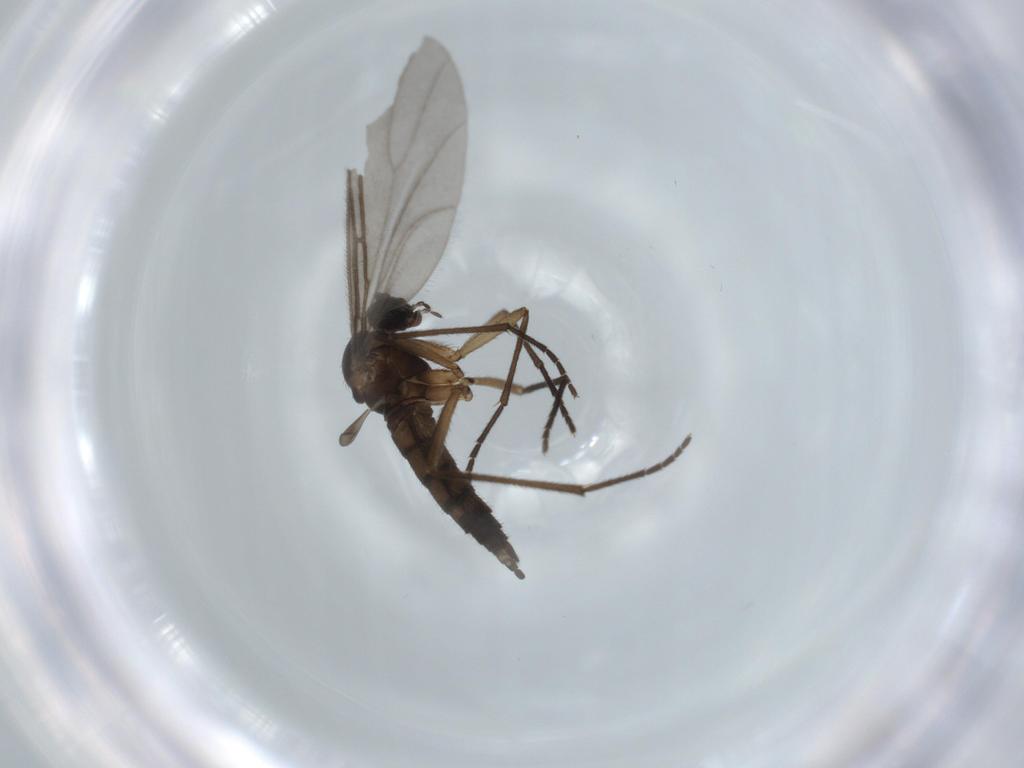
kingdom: Animalia
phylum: Arthropoda
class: Insecta
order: Diptera
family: Sciaridae
